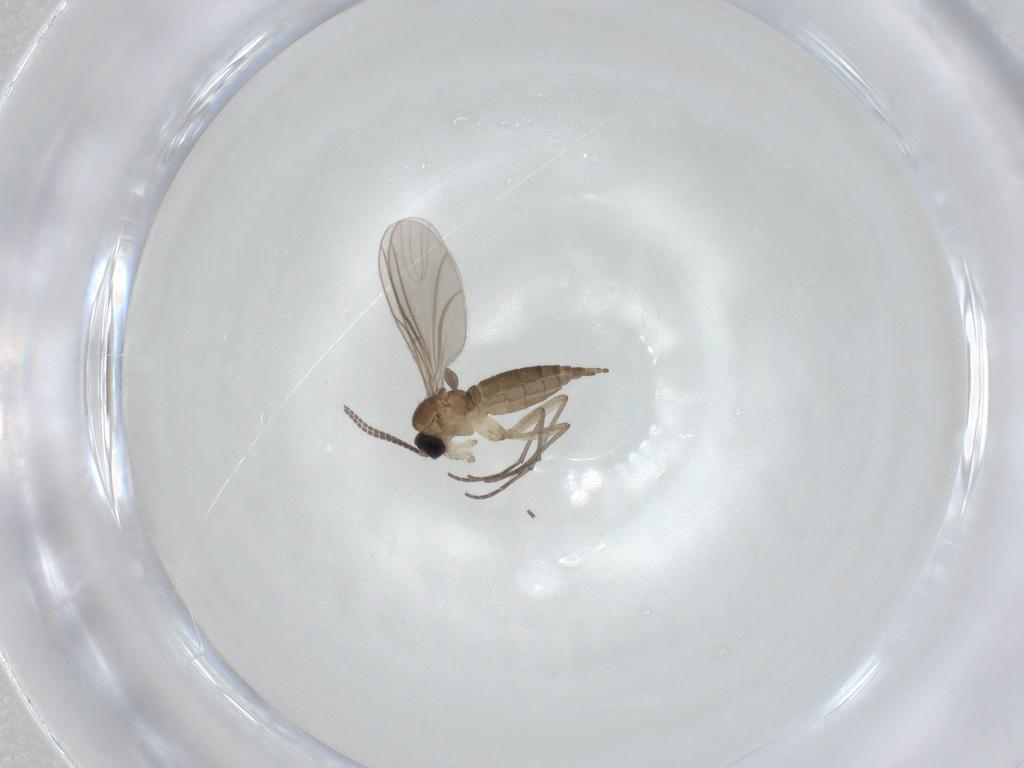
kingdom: Animalia
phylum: Arthropoda
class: Insecta
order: Diptera
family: Sciaridae
